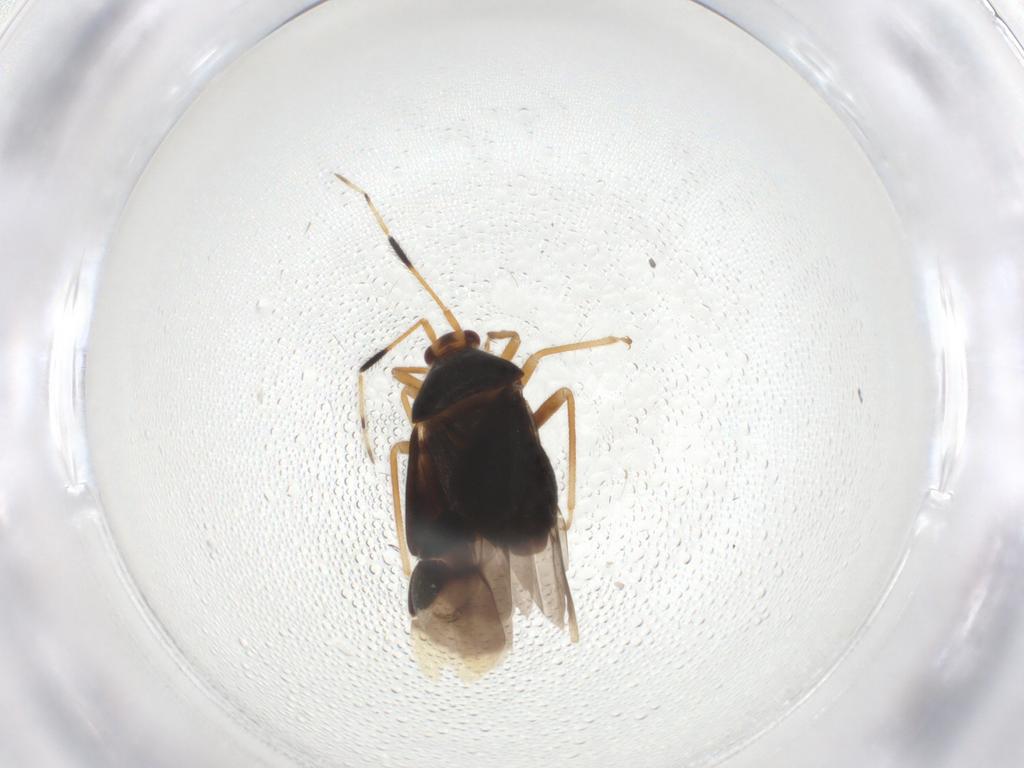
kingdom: Animalia
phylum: Arthropoda
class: Insecta
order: Hemiptera
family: Miridae
